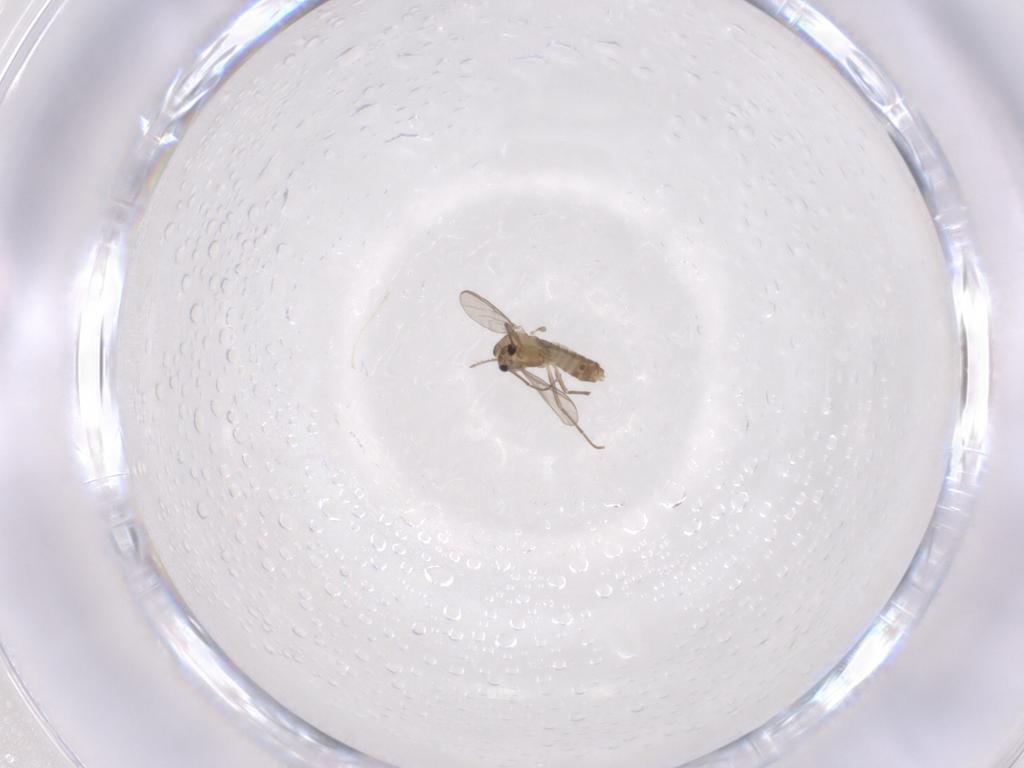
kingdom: Animalia
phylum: Arthropoda
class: Insecta
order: Diptera
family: Chironomidae
